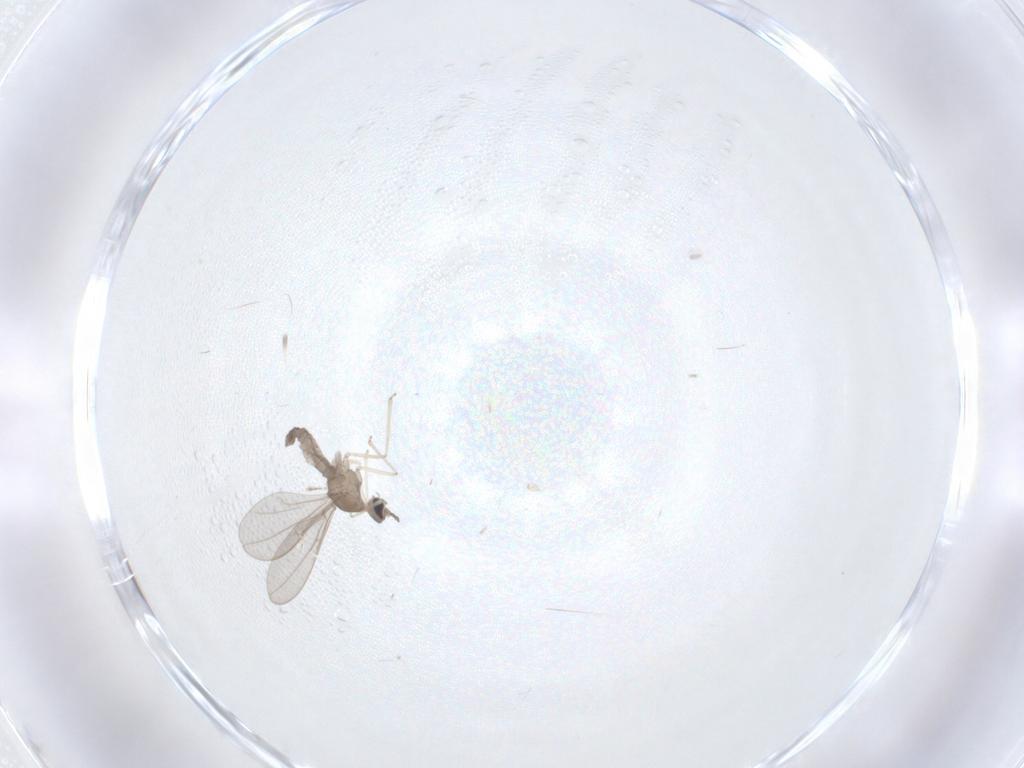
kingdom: Animalia
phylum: Arthropoda
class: Insecta
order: Diptera
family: Cecidomyiidae
